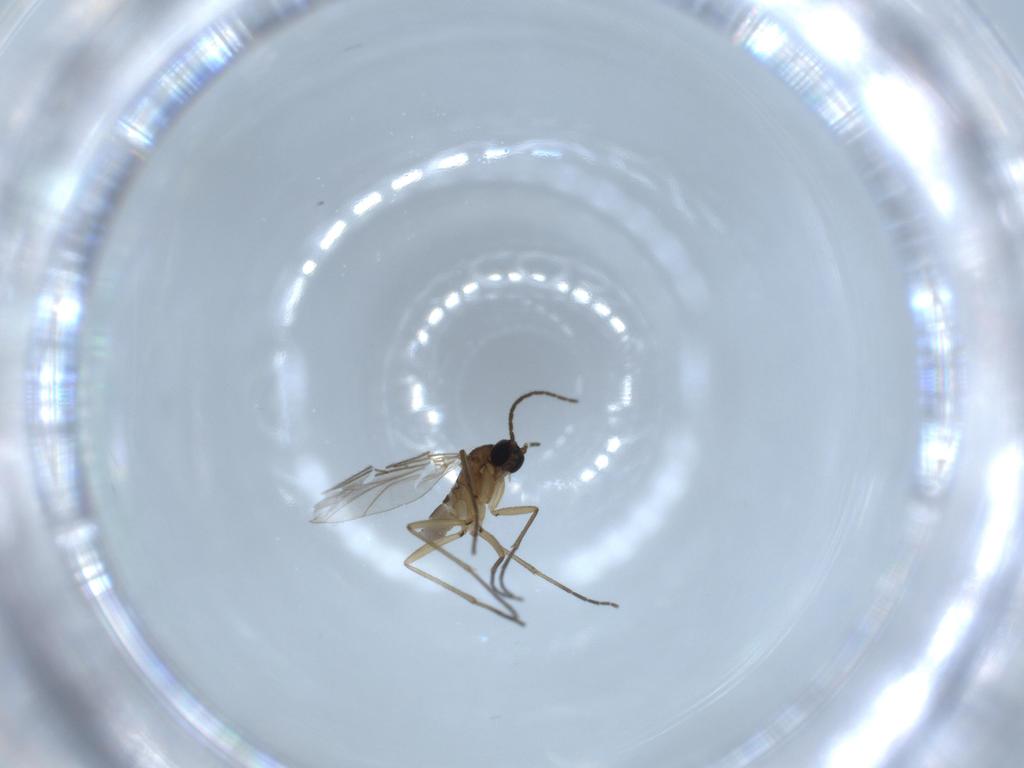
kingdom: Animalia
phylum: Arthropoda
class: Insecta
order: Diptera
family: Sciaridae
